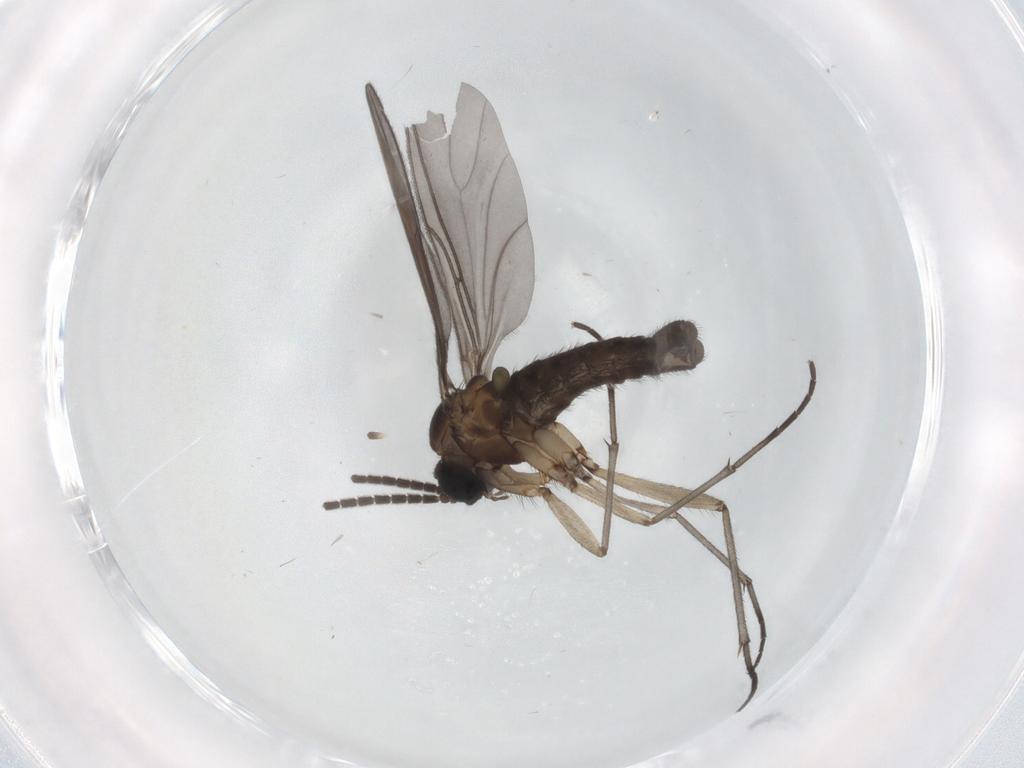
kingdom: Animalia
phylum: Arthropoda
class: Insecta
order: Diptera
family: Sciaridae
